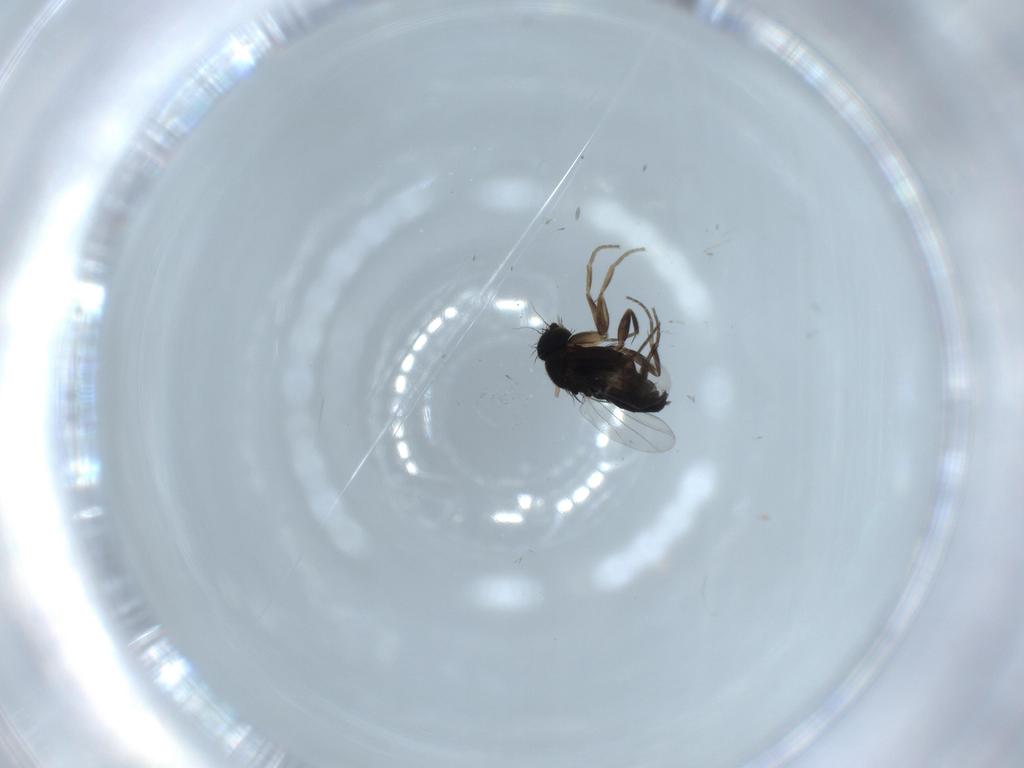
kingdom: Animalia
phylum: Arthropoda
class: Insecta
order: Diptera
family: Sciaridae
